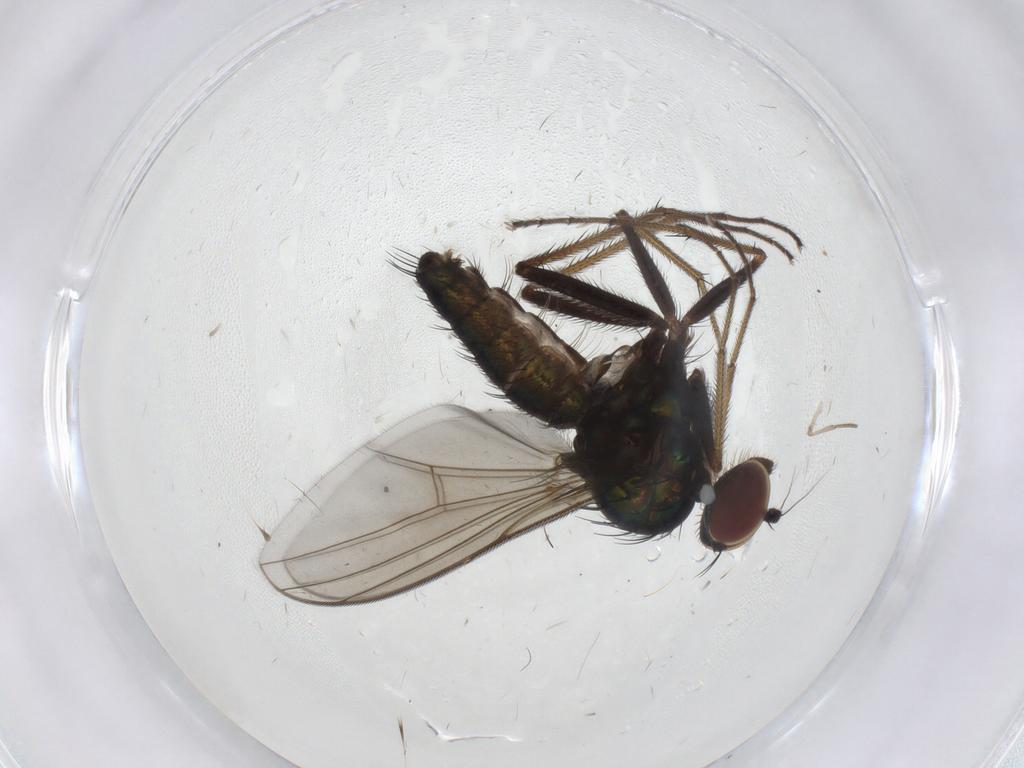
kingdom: Animalia
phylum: Arthropoda
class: Insecta
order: Diptera
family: Dolichopodidae
